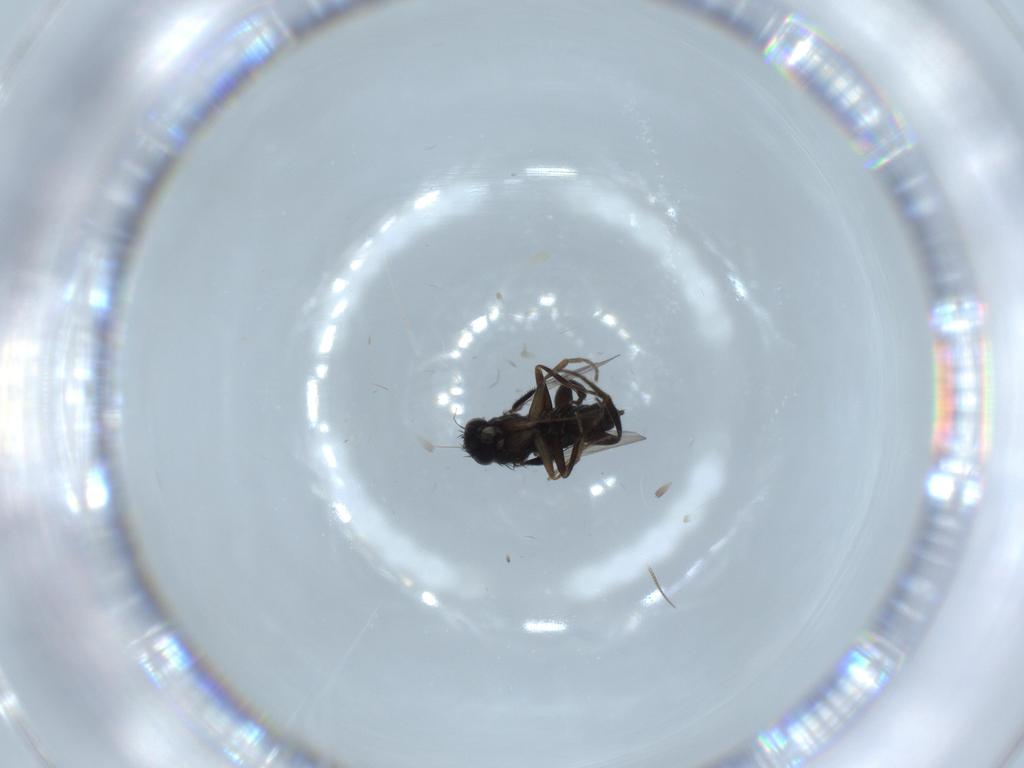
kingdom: Animalia
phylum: Arthropoda
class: Insecta
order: Diptera
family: Phoridae
